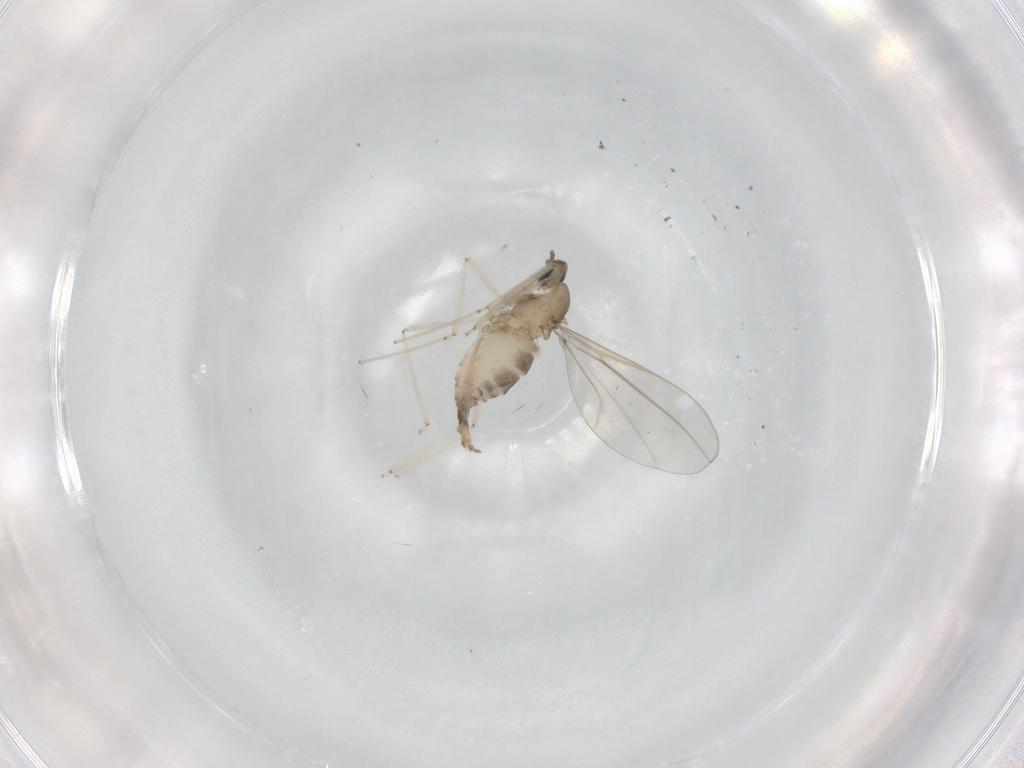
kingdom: Animalia
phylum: Arthropoda
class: Insecta
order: Diptera
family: Cecidomyiidae
